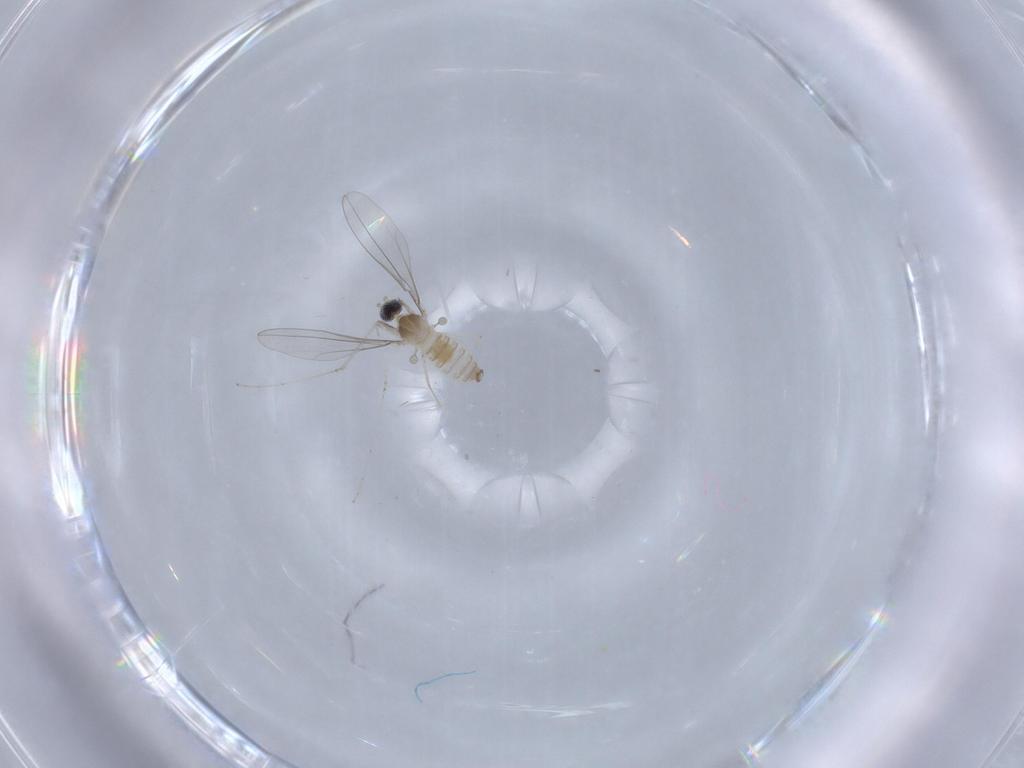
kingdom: Animalia
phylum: Arthropoda
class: Insecta
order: Diptera
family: Cecidomyiidae
